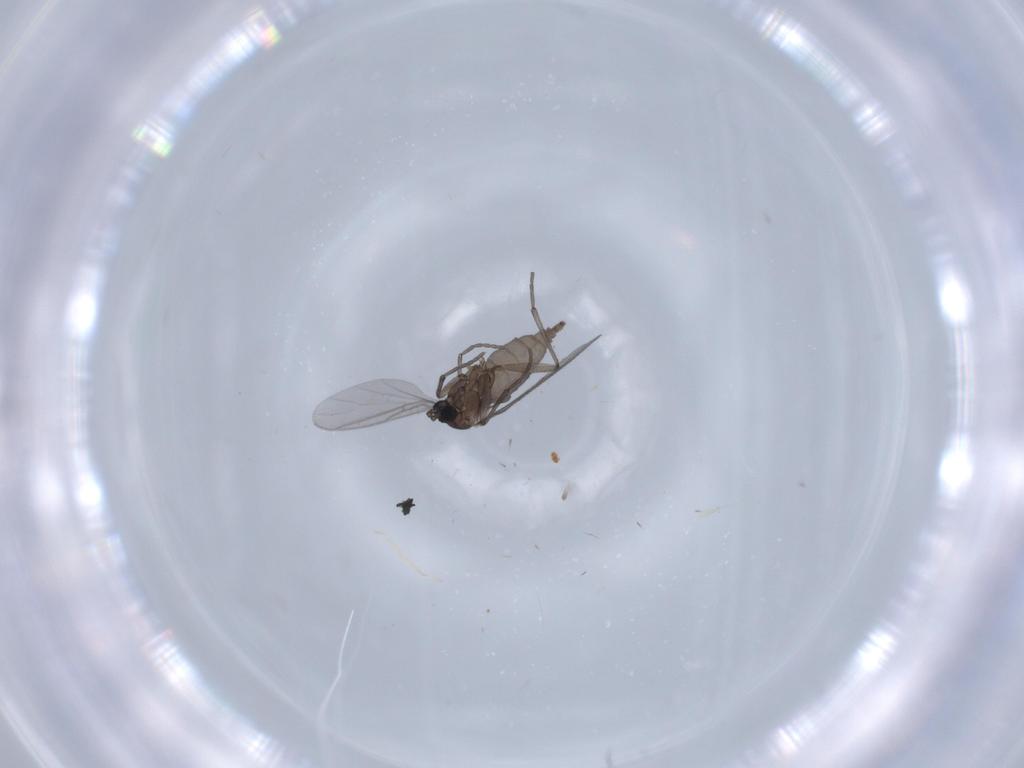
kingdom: Animalia
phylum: Arthropoda
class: Insecta
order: Diptera
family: Sciaridae
